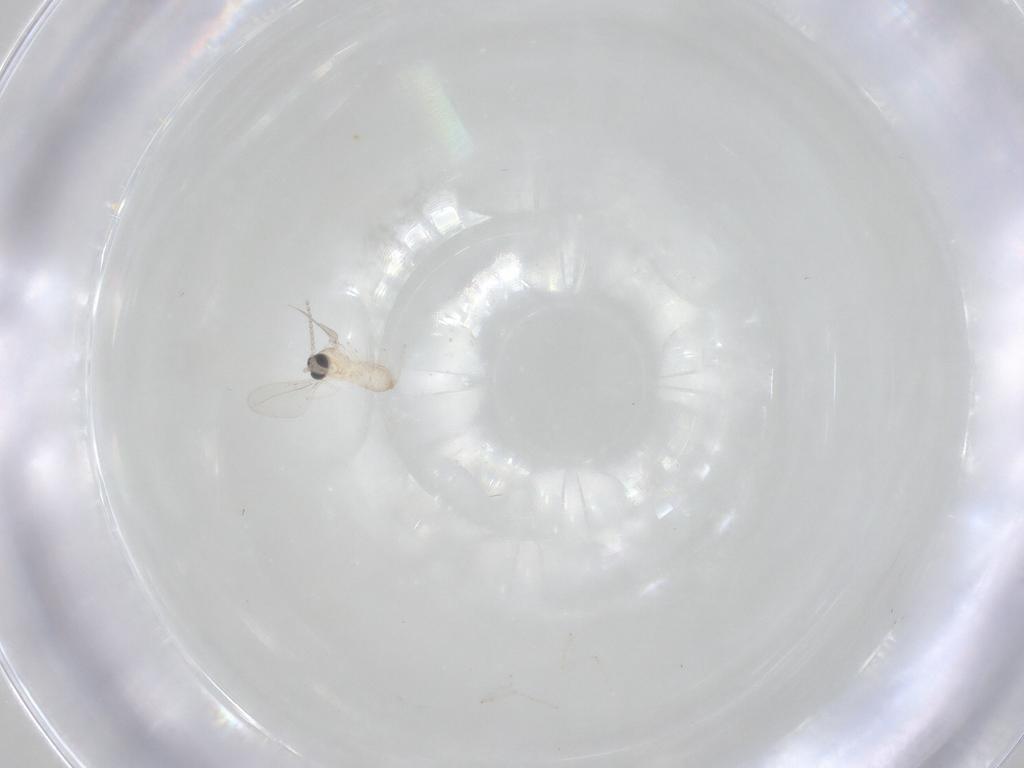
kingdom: Animalia
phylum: Arthropoda
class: Insecta
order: Diptera
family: Cecidomyiidae
